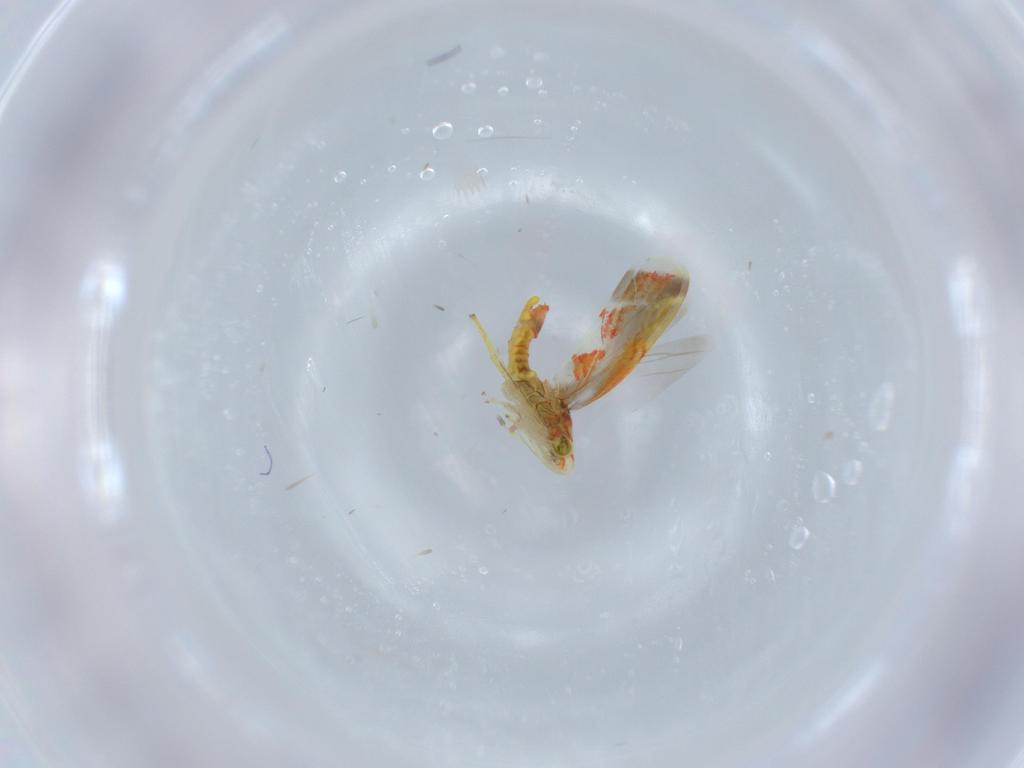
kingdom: Animalia
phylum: Arthropoda
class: Insecta
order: Hemiptera
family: Cicadellidae
